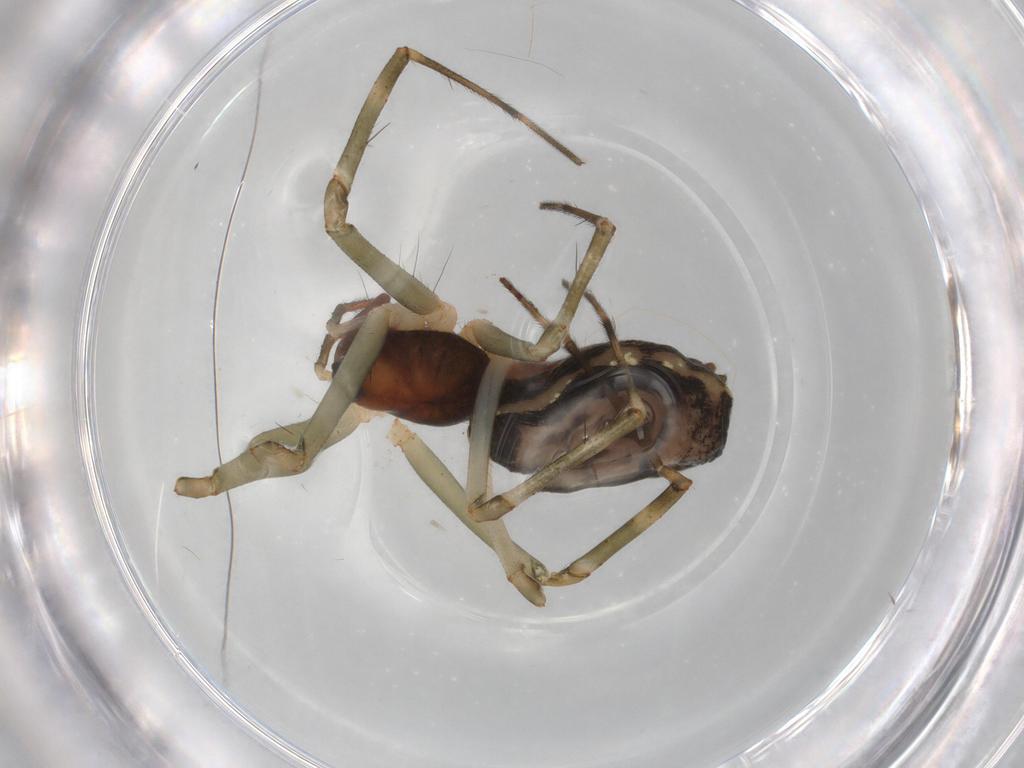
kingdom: Animalia
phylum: Arthropoda
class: Arachnida
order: Araneae
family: Linyphiidae
